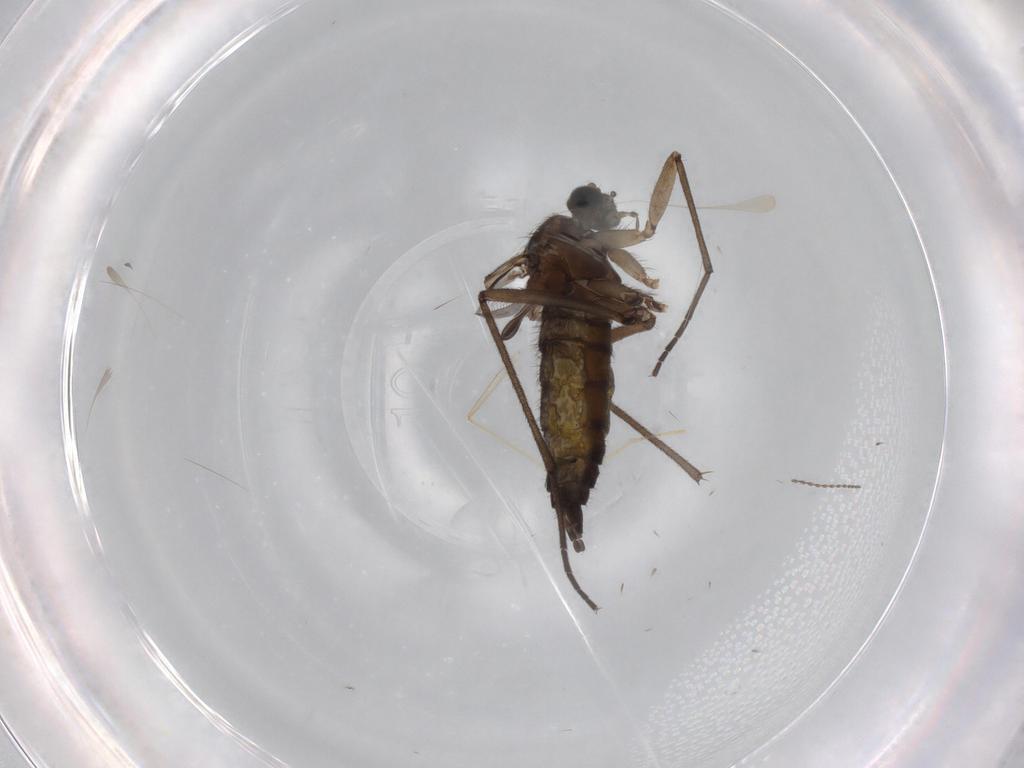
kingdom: Animalia
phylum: Arthropoda
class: Insecta
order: Diptera
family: Sciaridae
